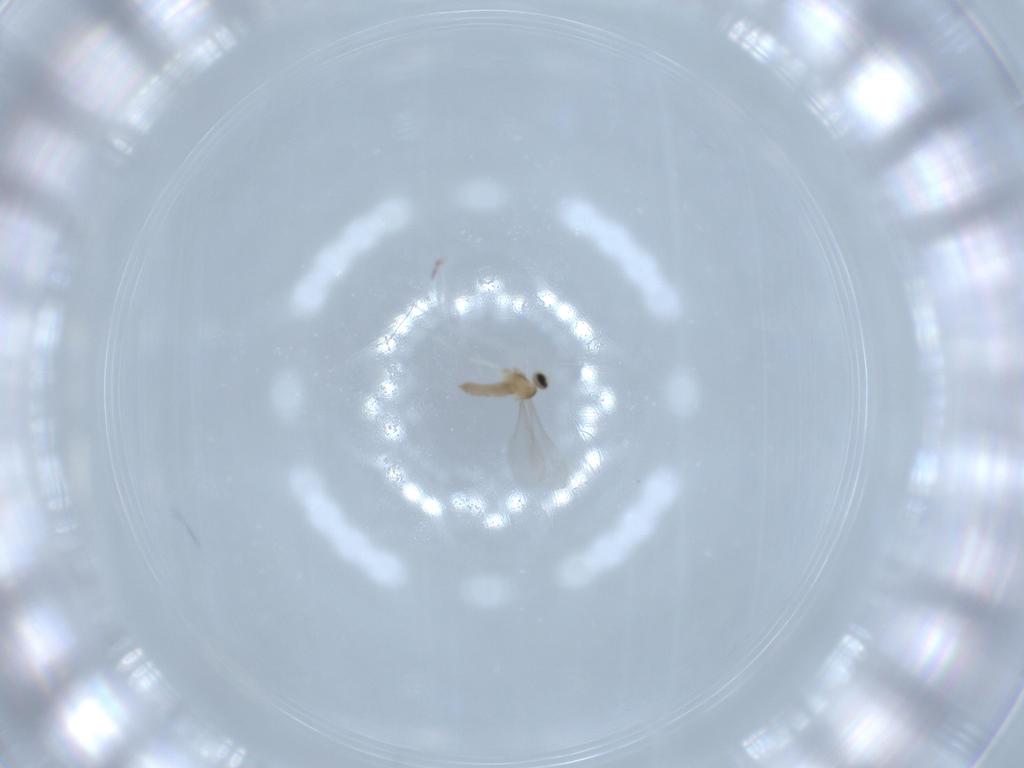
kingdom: Animalia
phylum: Arthropoda
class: Insecta
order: Diptera
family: Cecidomyiidae
